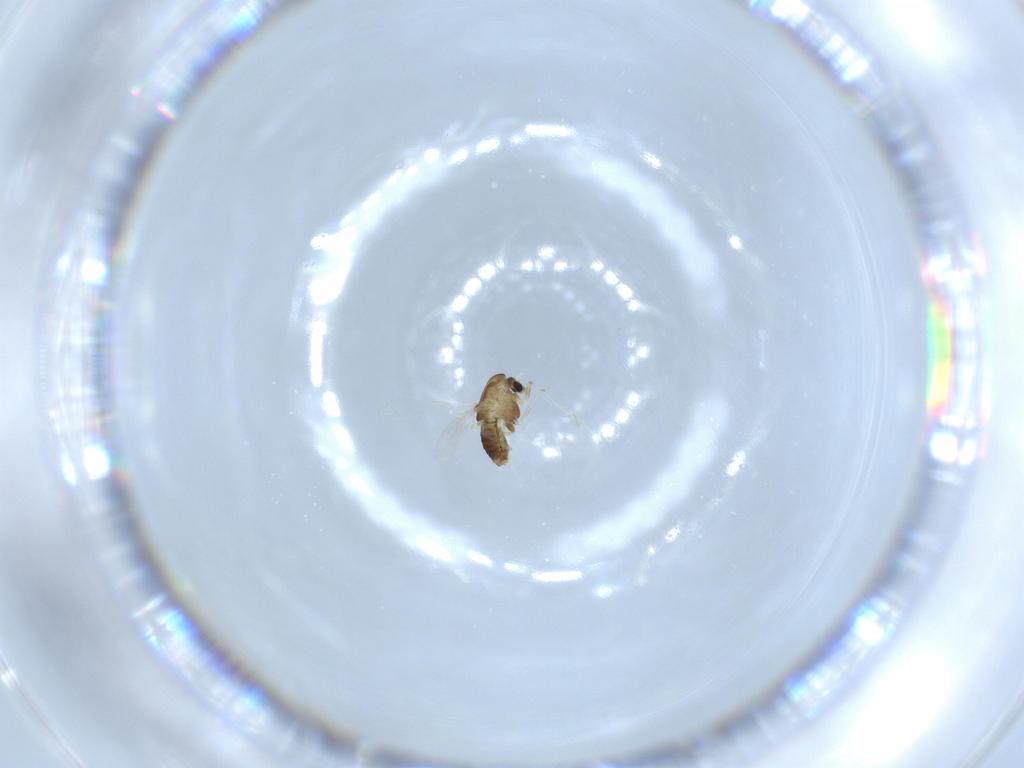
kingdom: Animalia
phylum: Arthropoda
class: Insecta
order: Diptera
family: Chironomidae
